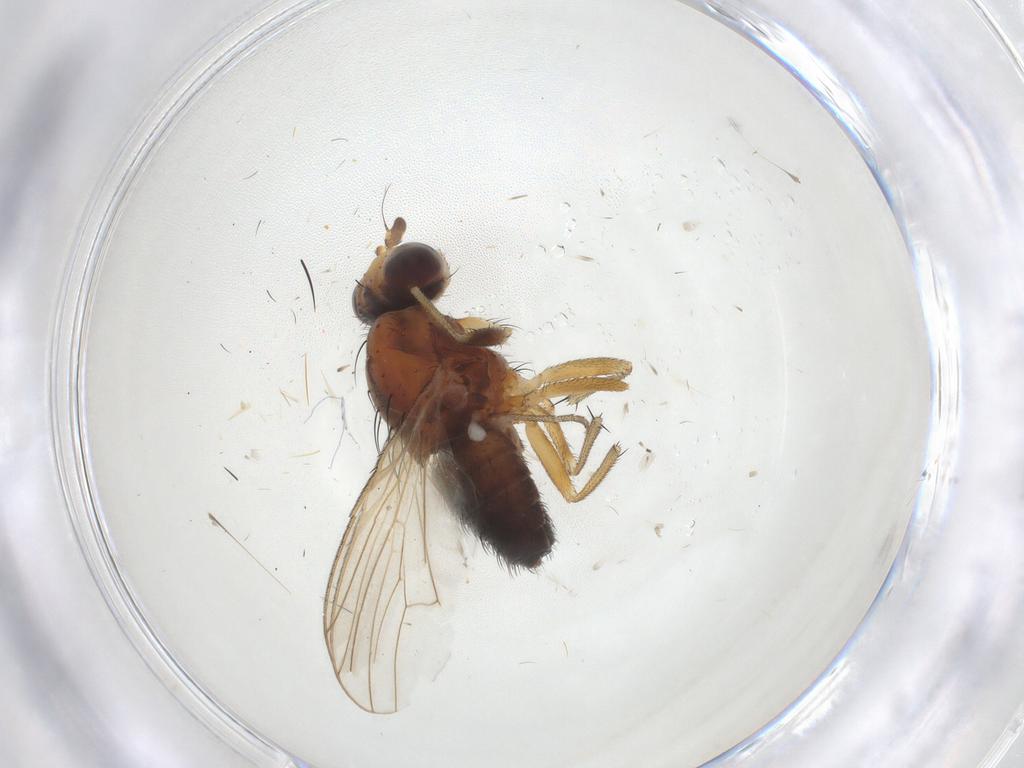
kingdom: Animalia
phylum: Arthropoda
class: Insecta
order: Diptera
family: Heleomyzidae
